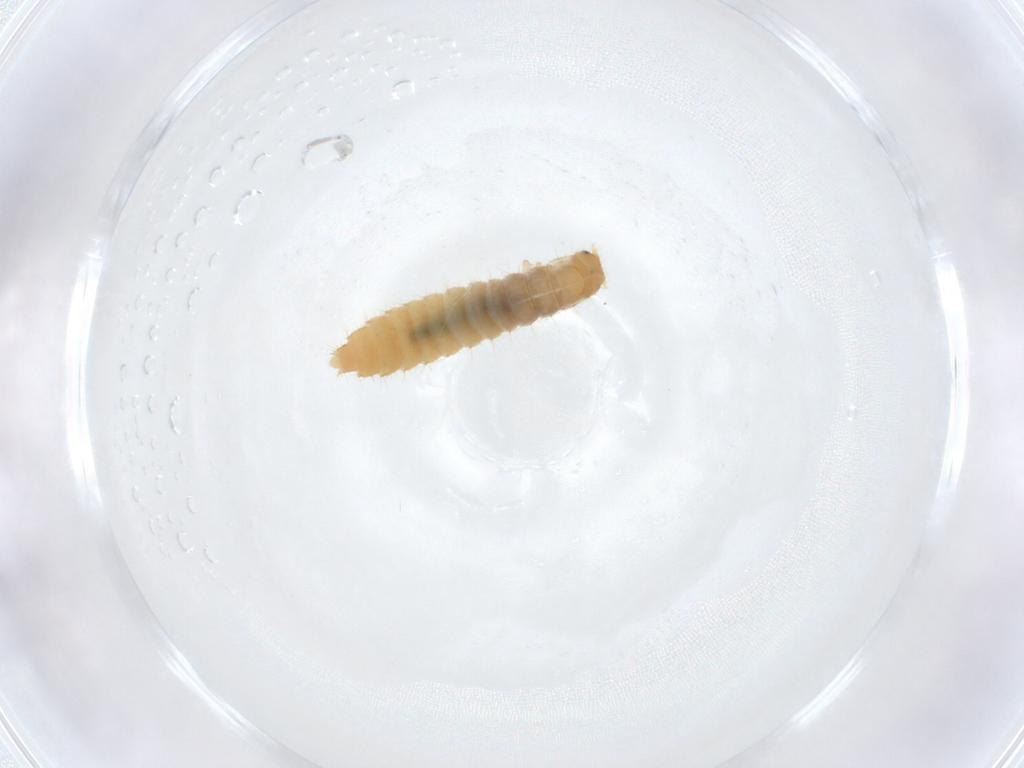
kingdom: Animalia
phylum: Arthropoda
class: Insecta
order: Coleoptera
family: Staphylinidae
